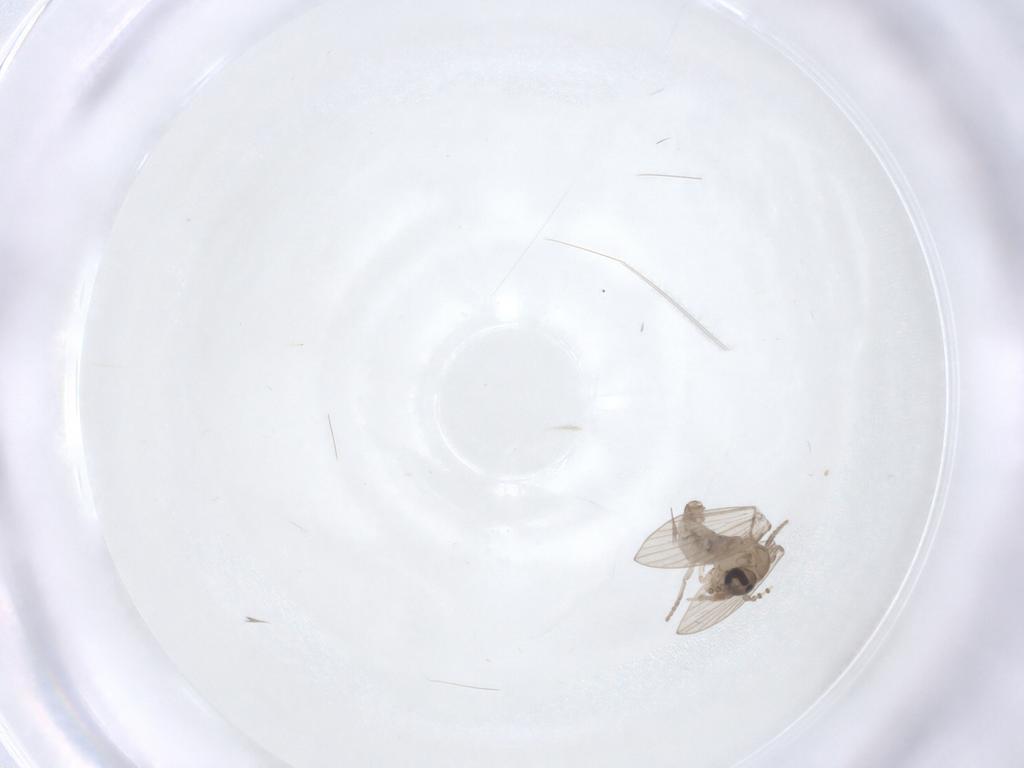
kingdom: Animalia
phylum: Arthropoda
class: Insecta
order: Diptera
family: Psychodidae
